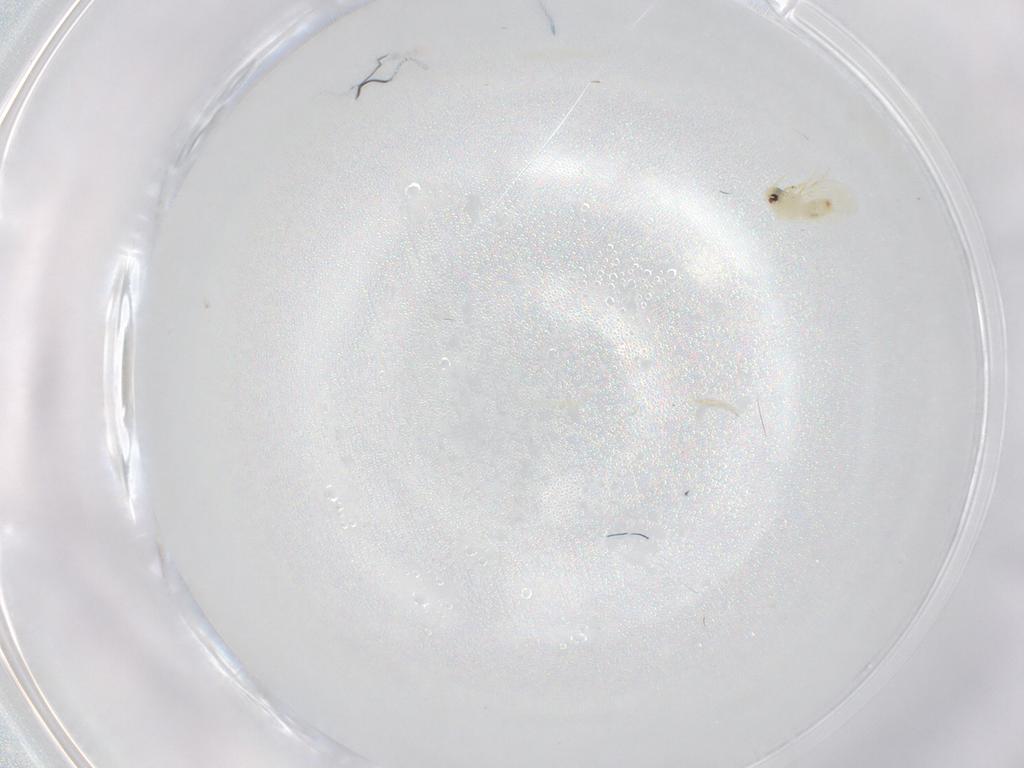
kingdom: Animalia
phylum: Arthropoda
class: Insecta
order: Hemiptera
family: Aleyrodidae
